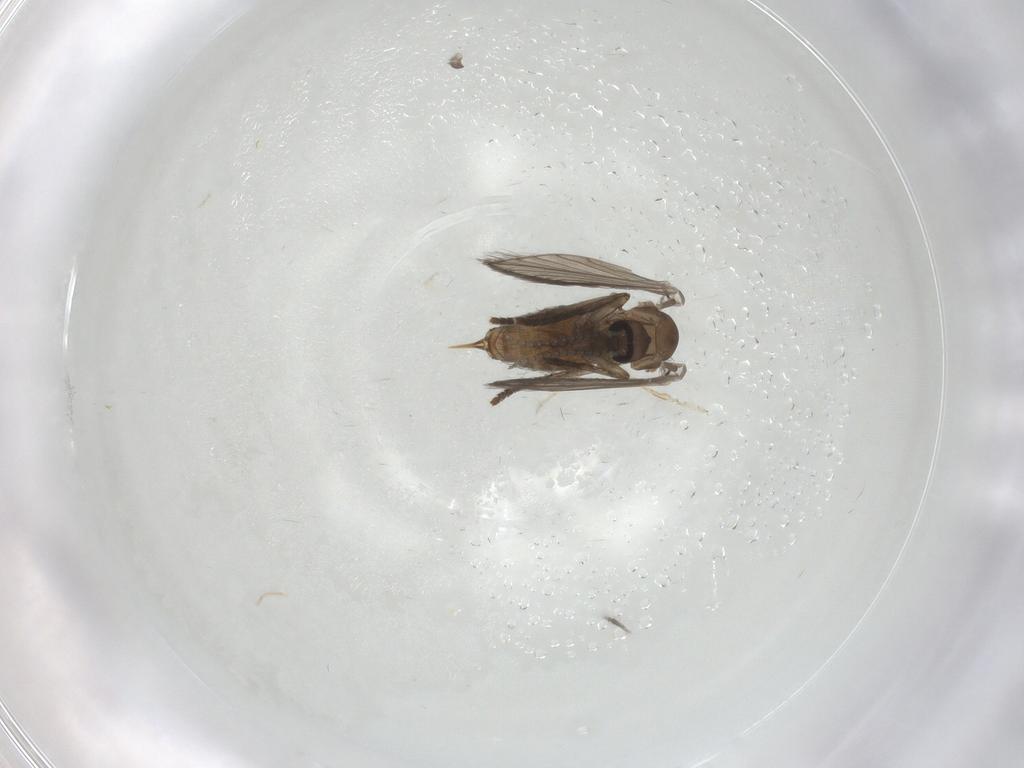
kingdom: Animalia
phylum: Arthropoda
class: Insecta
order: Diptera
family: Psychodidae
